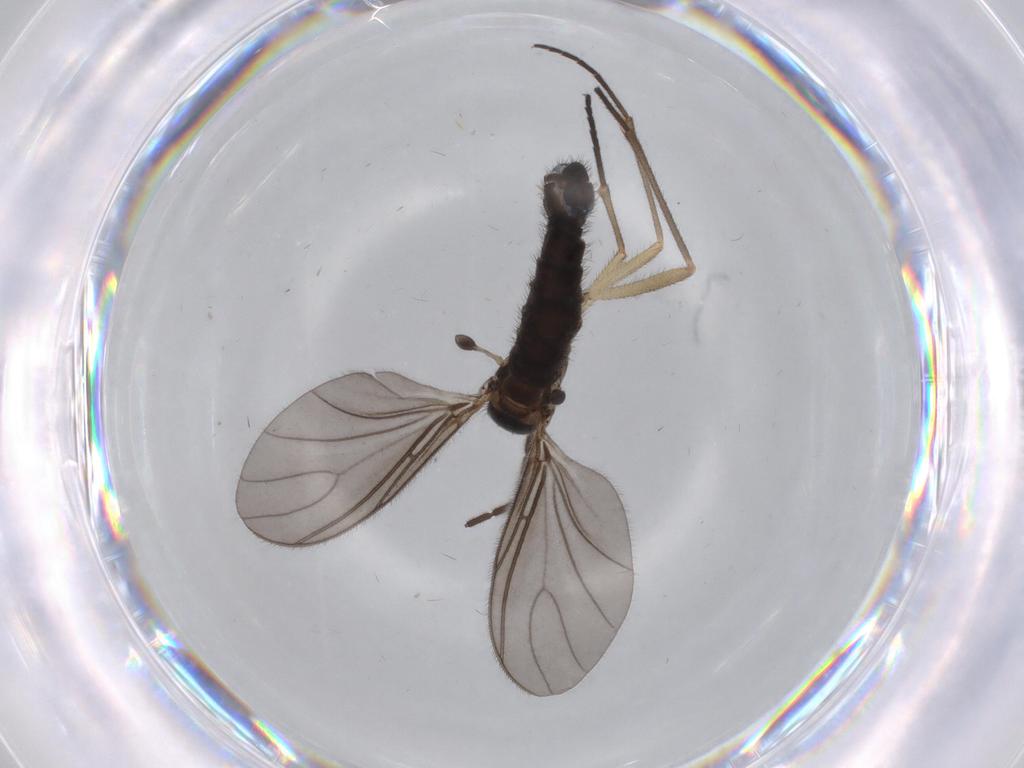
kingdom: Animalia
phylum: Arthropoda
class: Insecta
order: Diptera
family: Sciaridae
